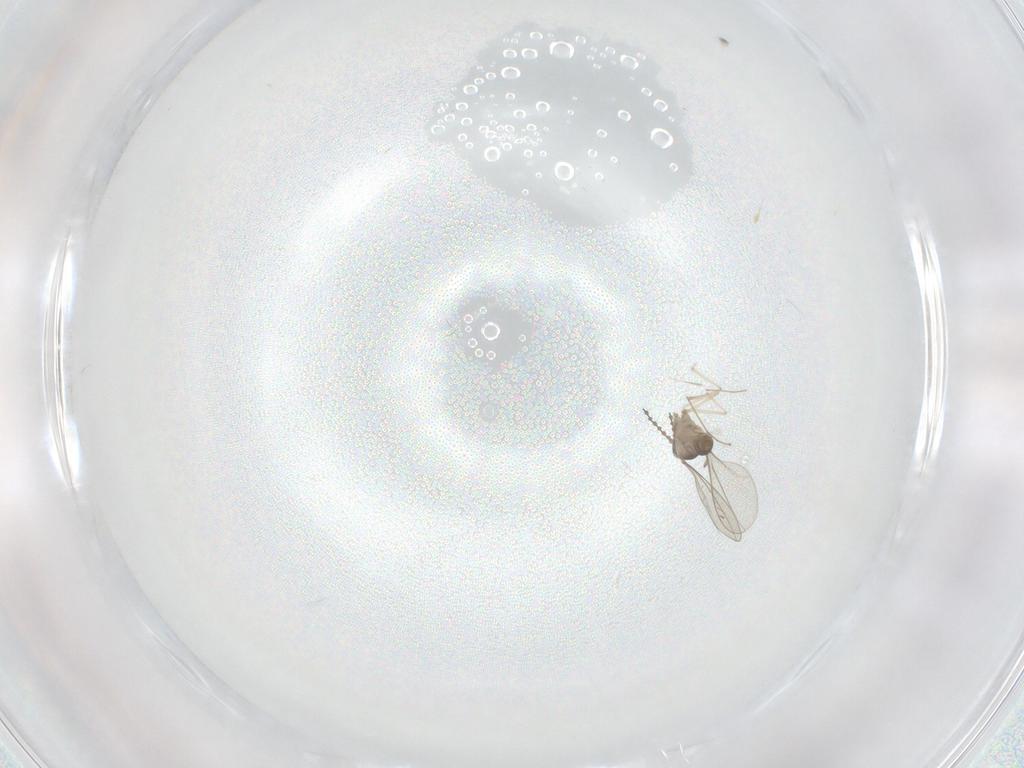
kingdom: Animalia
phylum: Arthropoda
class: Insecta
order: Diptera
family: Cecidomyiidae
